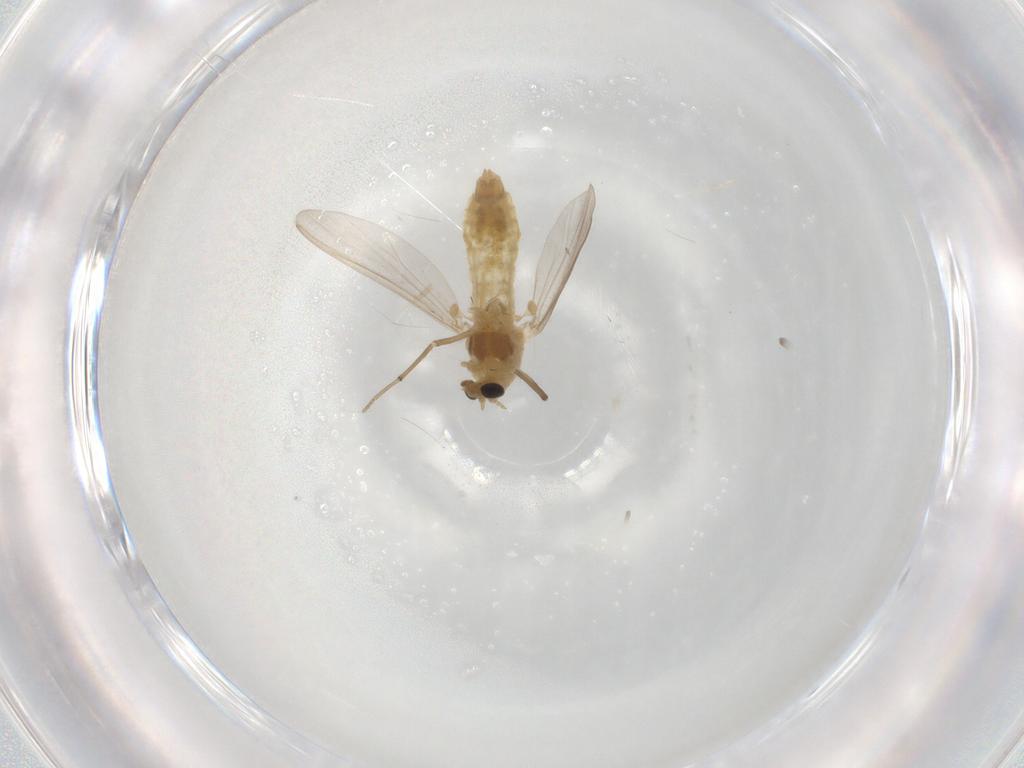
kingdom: Animalia
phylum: Arthropoda
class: Insecta
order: Diptera
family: Chironomidae
